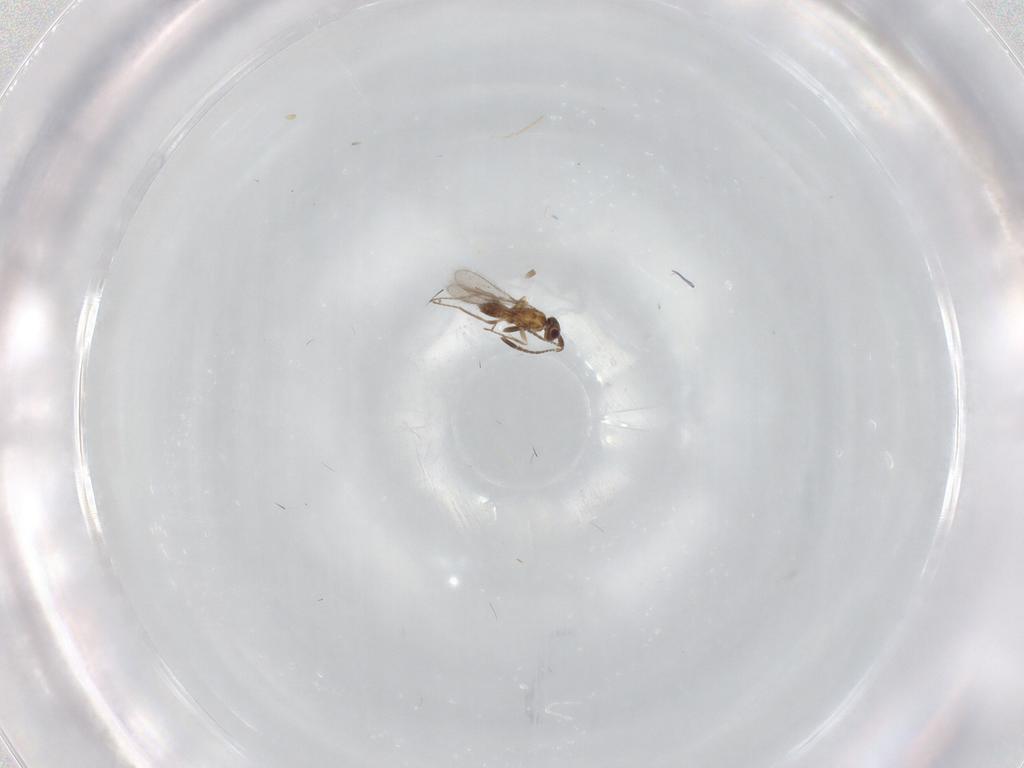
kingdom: Animalia
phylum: Arthropoda
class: Insecta
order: Hymenoptera
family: Mymaridae
